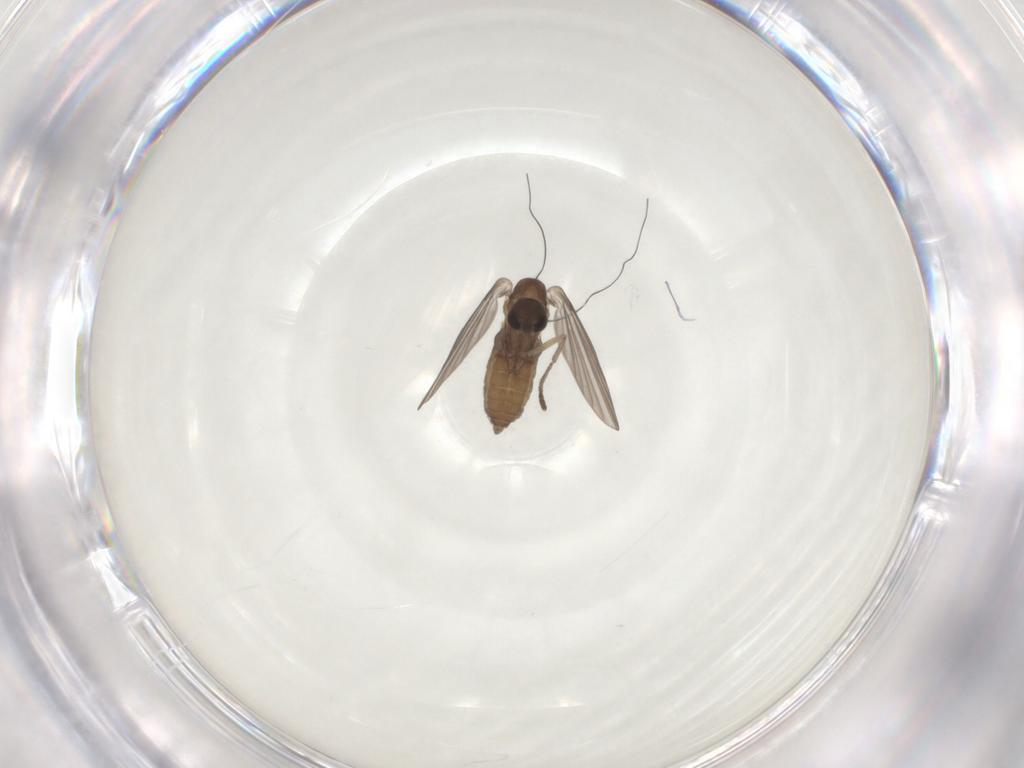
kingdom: Animalia
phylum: Arthropoda
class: Insecta
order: Diptera
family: Psychodidae
